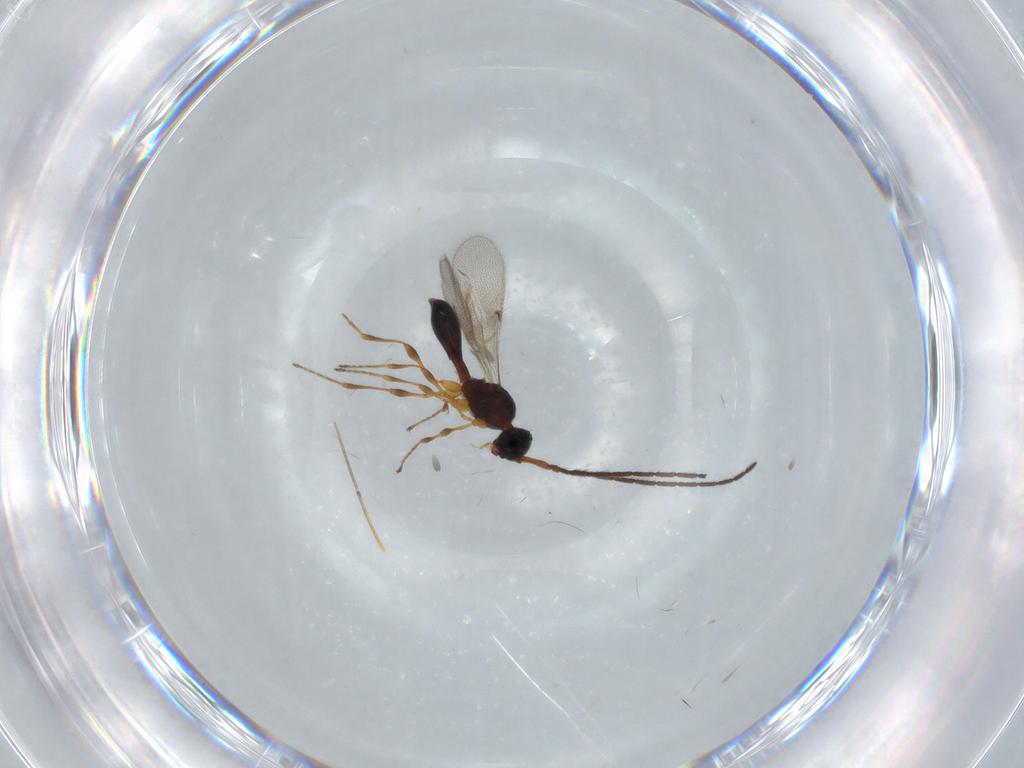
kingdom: Animalia
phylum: Arthropoda
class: Insecta
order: Hymenoptera
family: Diapriidae
